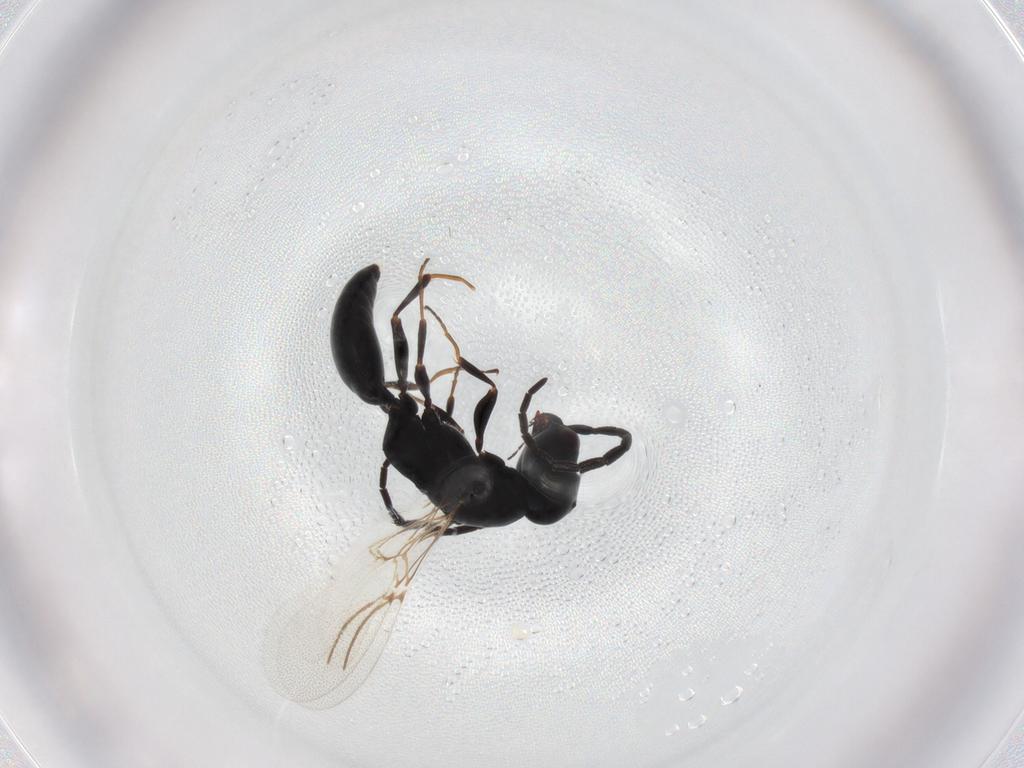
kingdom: Animalia
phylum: Arthropoda
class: Insecta
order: Hymenoptera
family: Bethylidae
